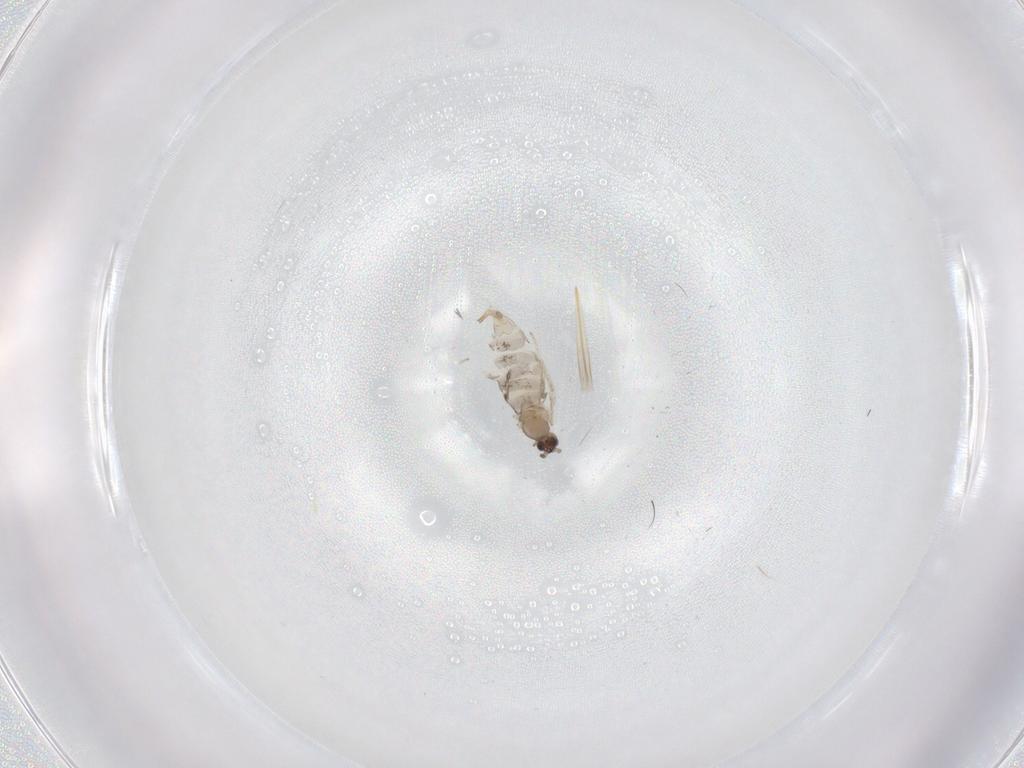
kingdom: Animalia
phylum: Arthropoda
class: Insecta
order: Diptera
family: Cecidomyiidae
